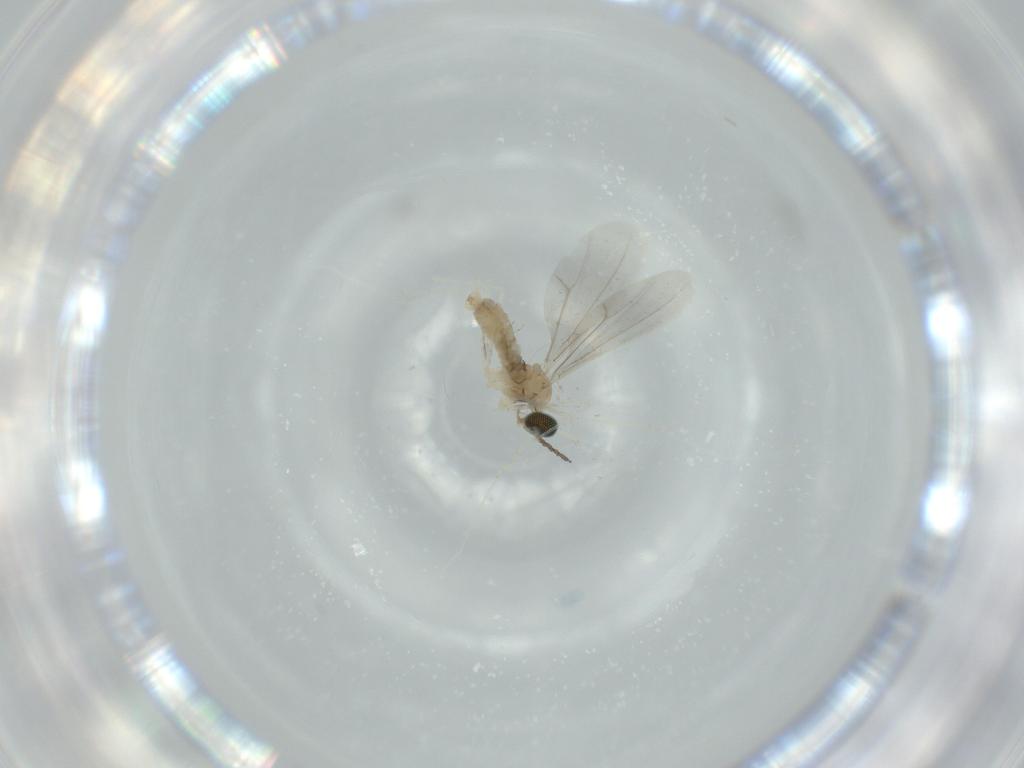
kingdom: Animalia
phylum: Arthropoda
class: Insecta
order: Diptera
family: Cecidomyiidae
